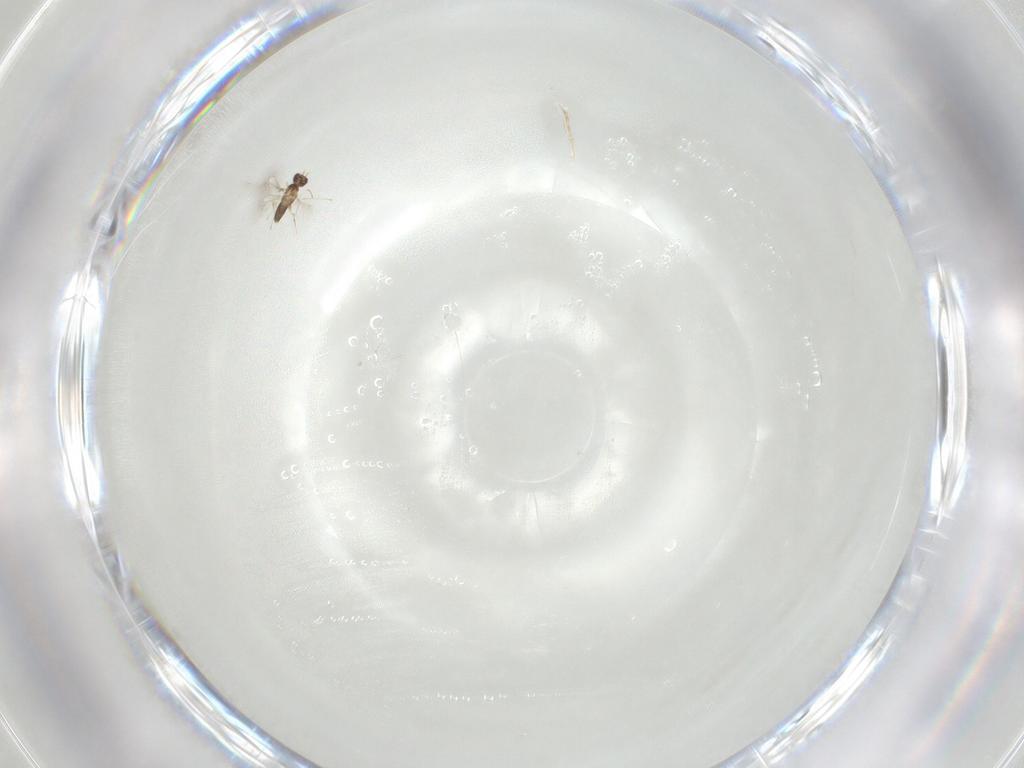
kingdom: Animalia
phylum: Arthropoda
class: Insecta
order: Hymenoptera
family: Mymaridae
